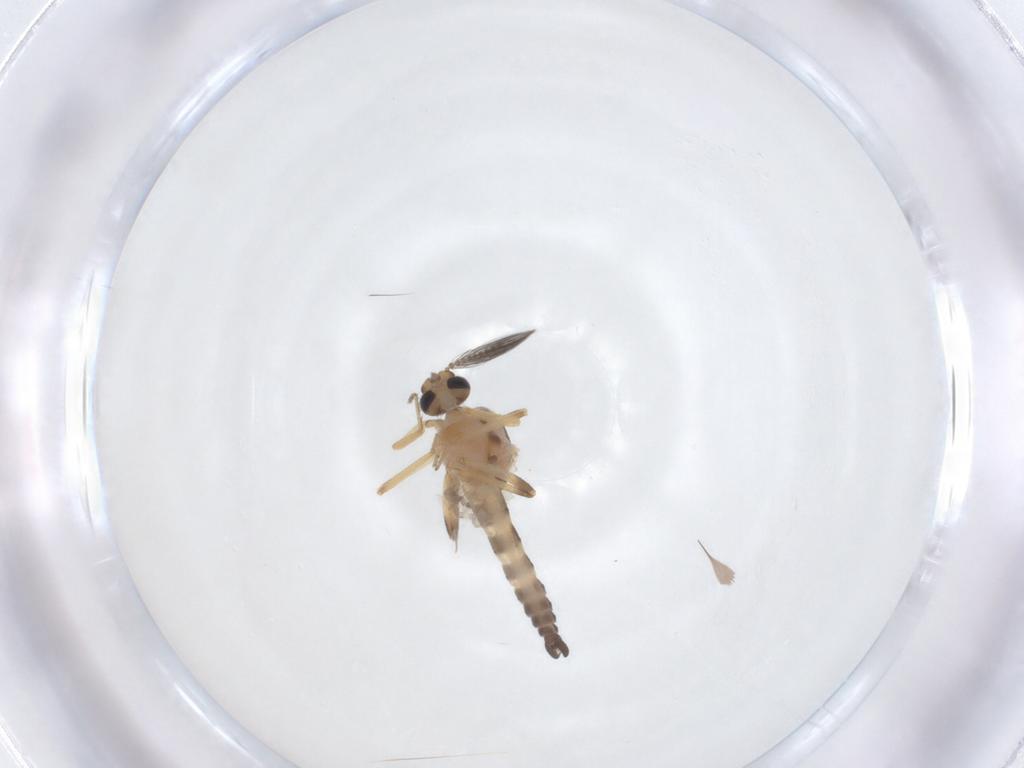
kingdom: Animalia
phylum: Arthropoda
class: Insecta
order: Diptera
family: Ceratopogonidae
